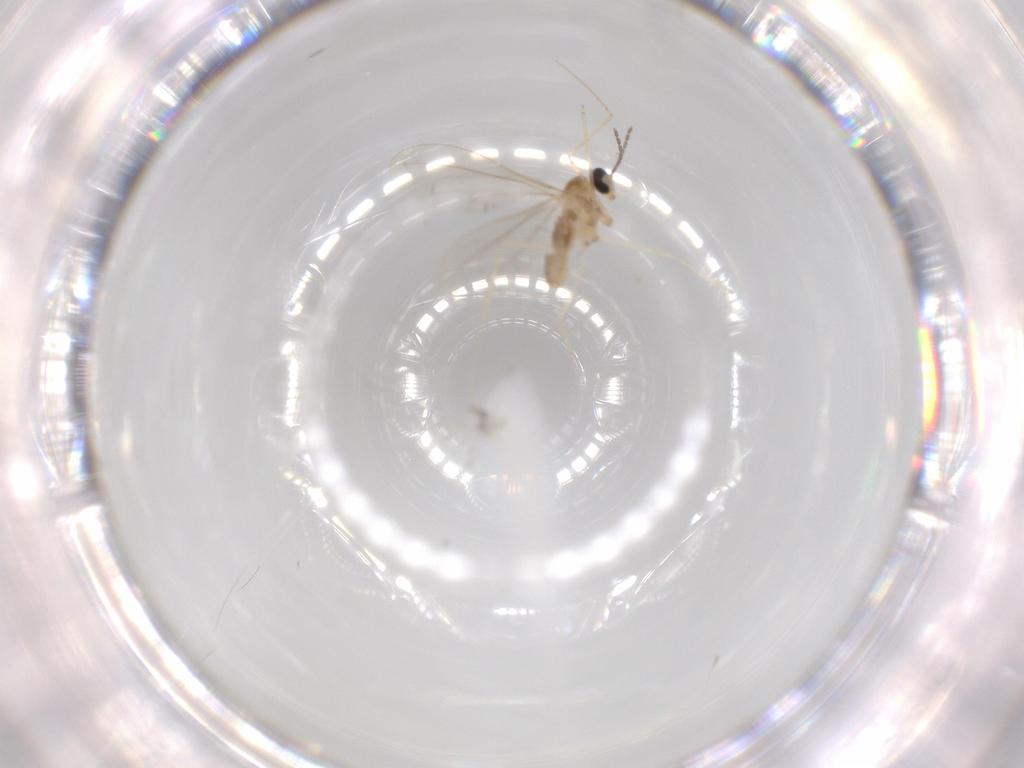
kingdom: Animalia
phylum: Arthropoda
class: Insecta
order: Diptera
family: Cecidomyiidae
